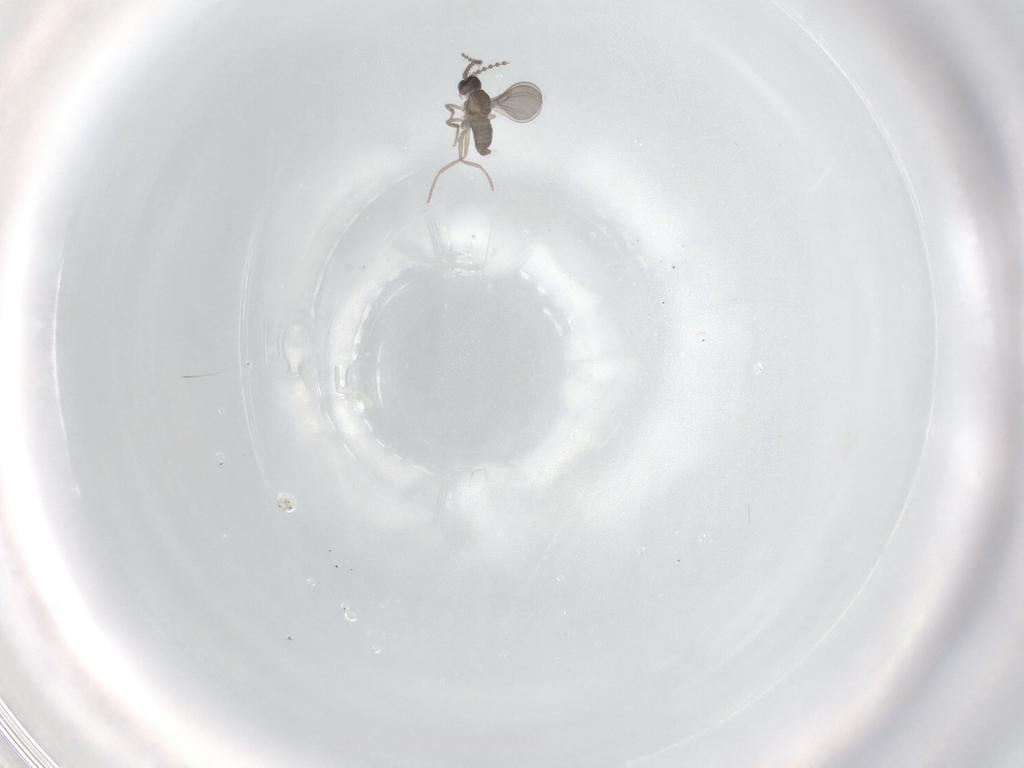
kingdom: Animalia
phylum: Arthropoda
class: Insecta
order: Diptera
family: Cecidomyiidae
